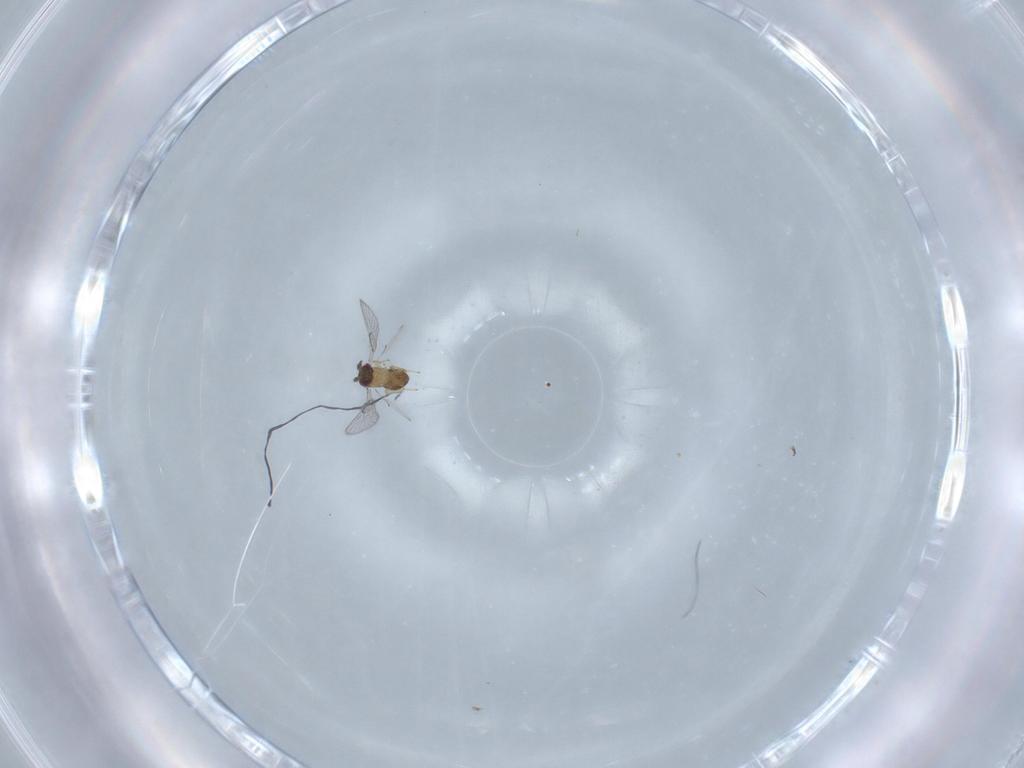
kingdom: Animalia
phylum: Arthropoda
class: Insecta
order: Hymenoptera
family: Trichogrammatidae
